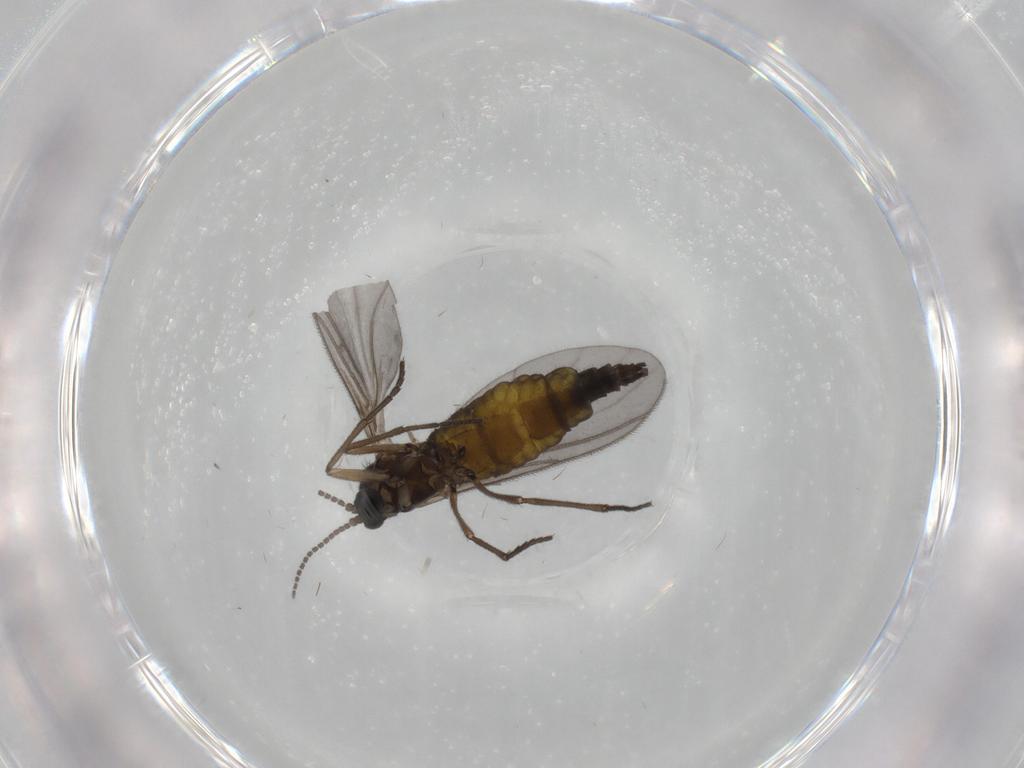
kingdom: Animalia
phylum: Arthropoda
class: Insecta
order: Diptera
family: Sciaridae
